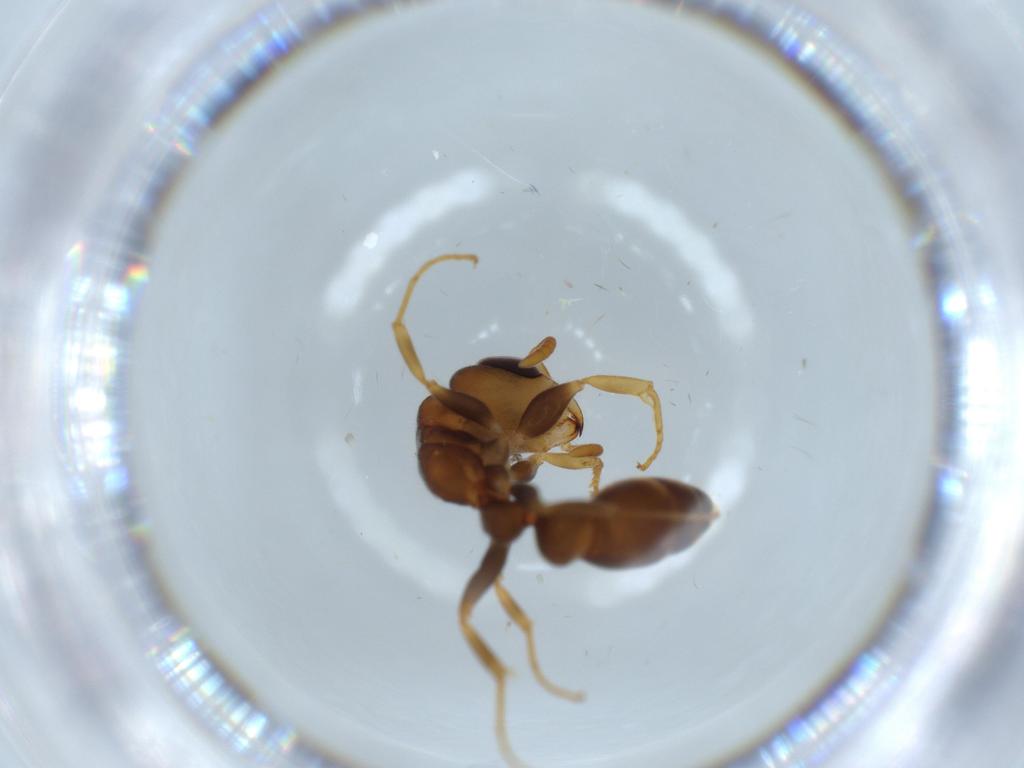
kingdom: Animalia
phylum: Arthropoda
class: Insecta
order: Hymenoptera
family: Formicidae
